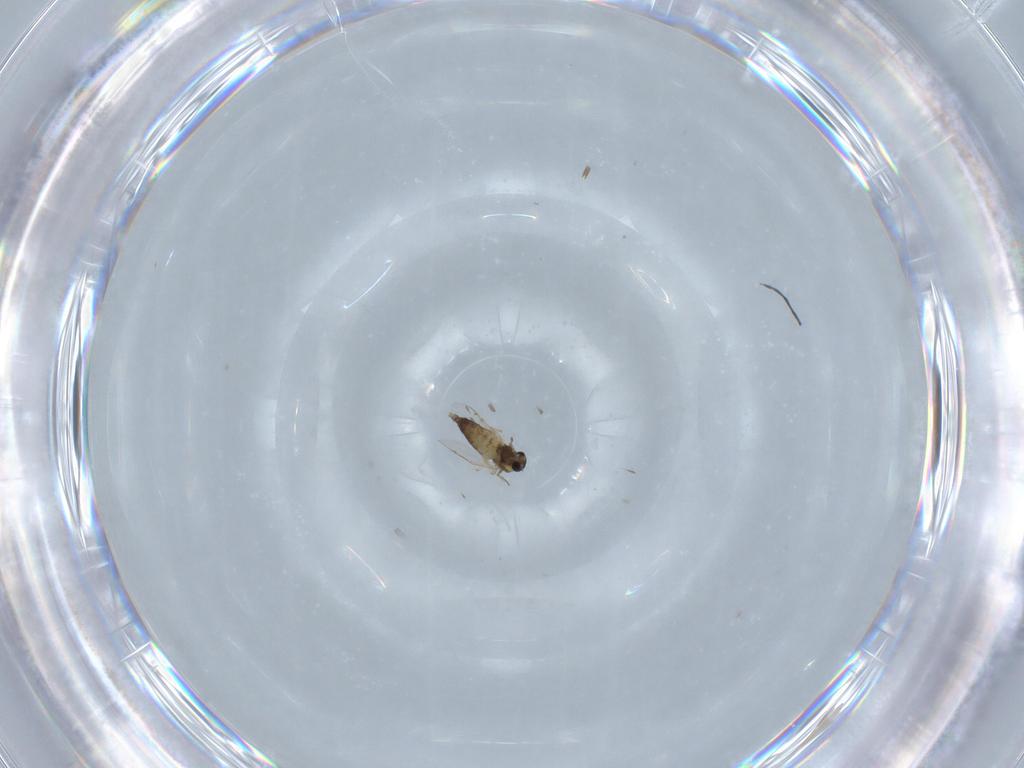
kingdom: Animalia
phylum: Arthropoda
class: Insecta
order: Diptera
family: Chironomidae
